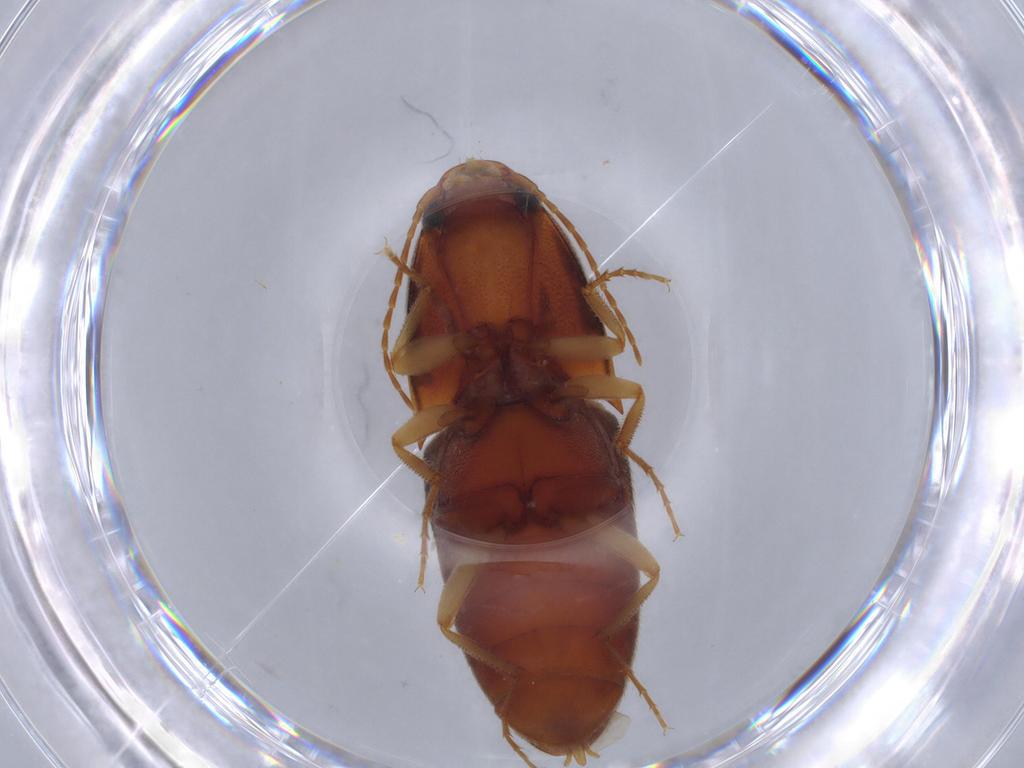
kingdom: Animalia
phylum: Arthropoda
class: Insecta
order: Coleoptera
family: Elateridae
